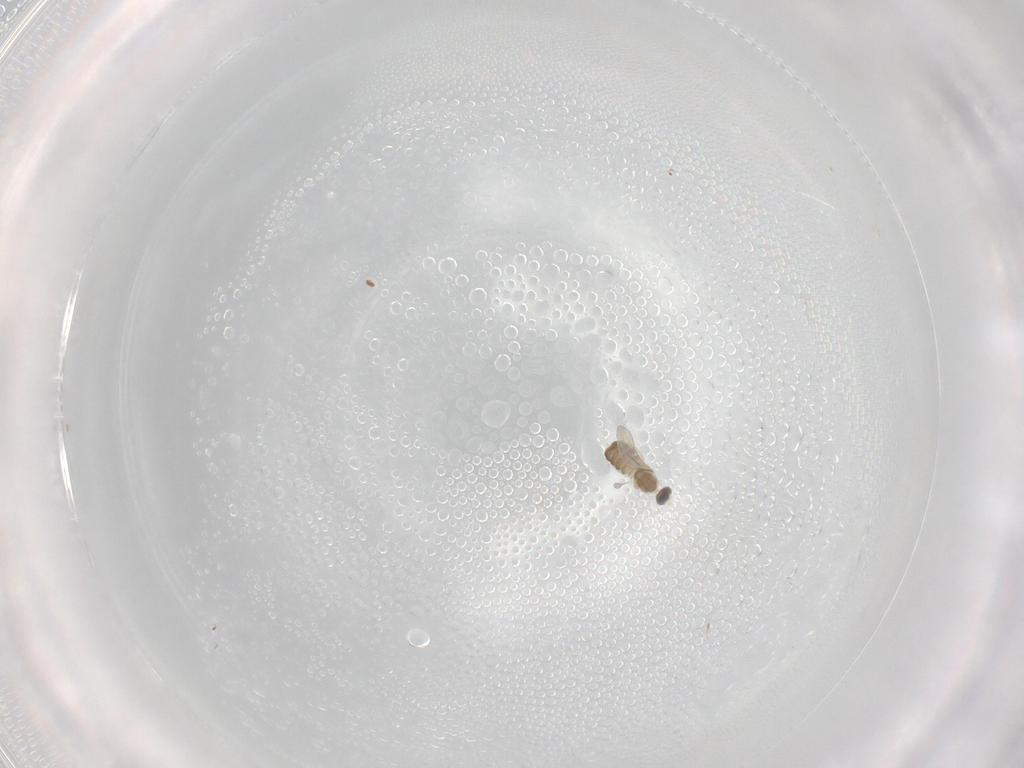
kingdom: Animalia
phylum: Arthropoda
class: Insecta
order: Diptera
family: Cecidomyiidae
